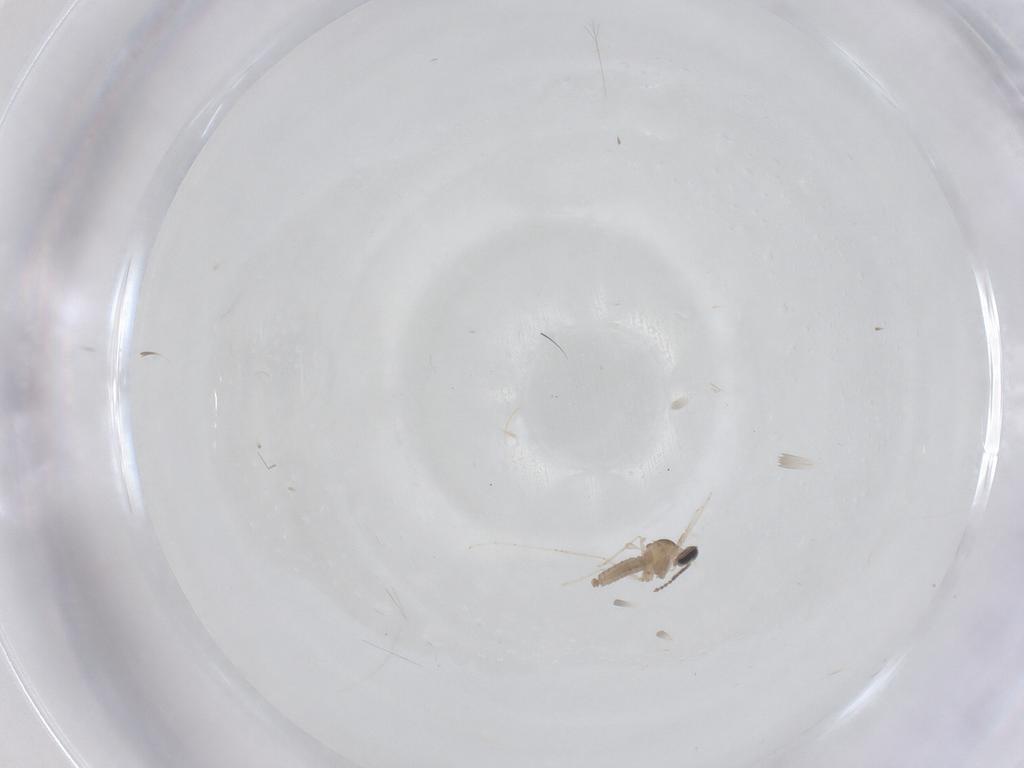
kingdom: Animalia
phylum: Arthropoda
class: Insecta
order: Diptera
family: Cecidomyiidae
